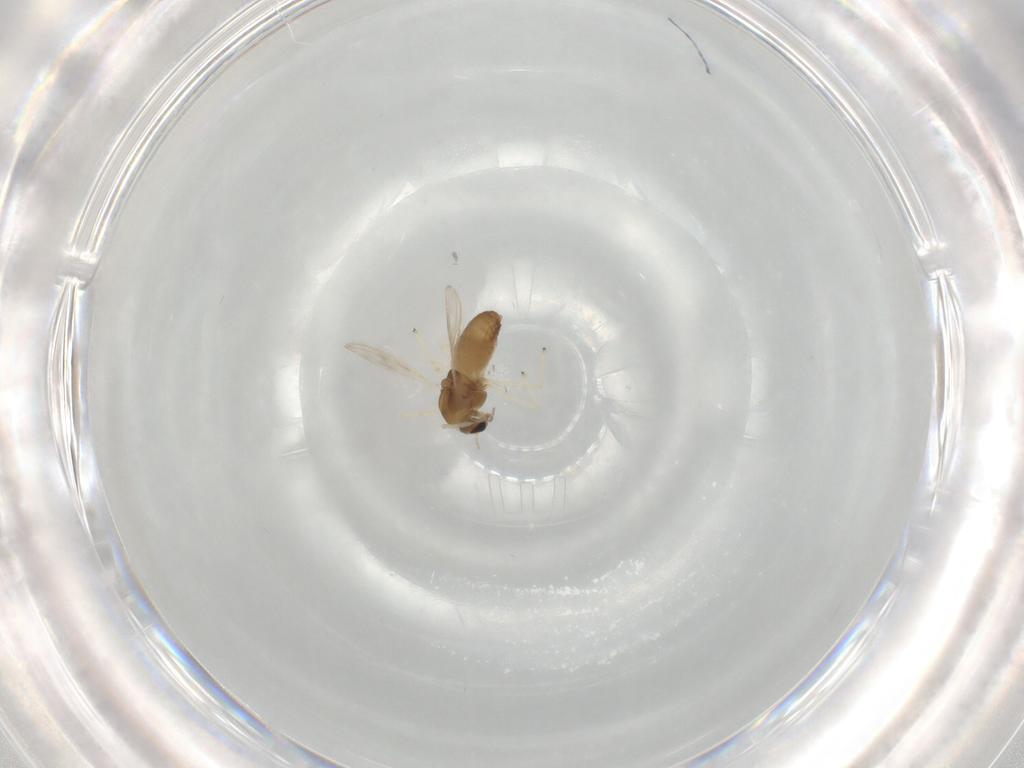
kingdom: Animalia
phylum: Arthropoda
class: Insecta
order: Diptera
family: Chironomidae
